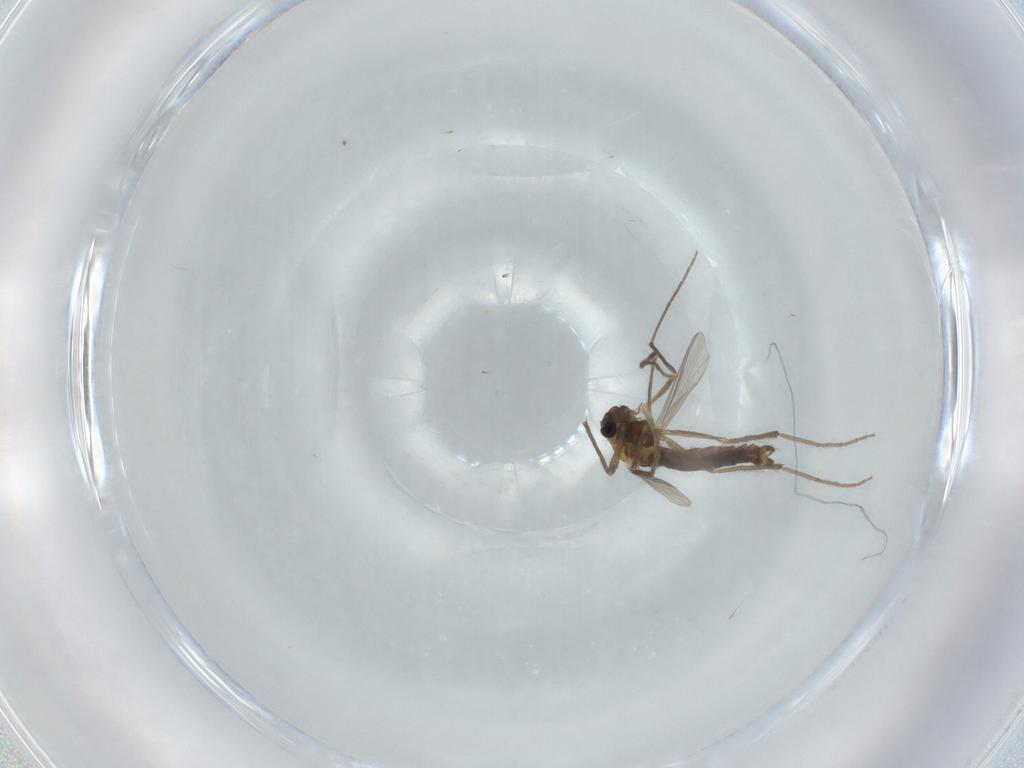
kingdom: Animalia
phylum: Arthropoda
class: Insecta
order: Diptera
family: Chironomidae
